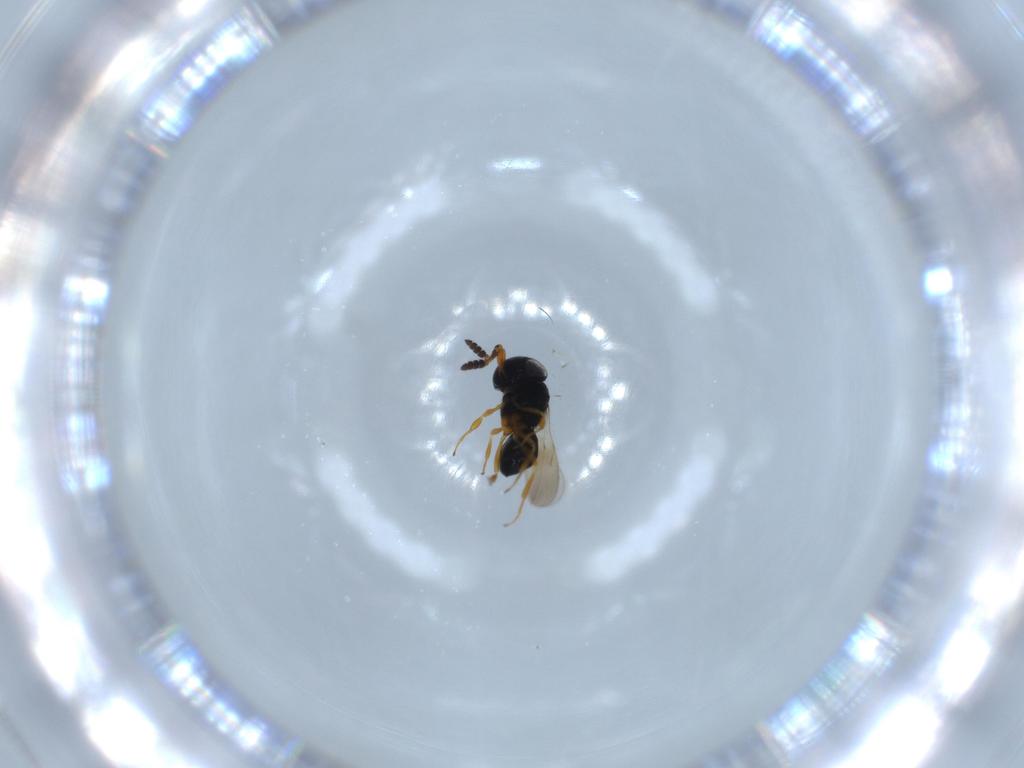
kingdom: Animalia
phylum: Arthropoda
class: Insecta
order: Hymenoptera
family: Scelionidae
